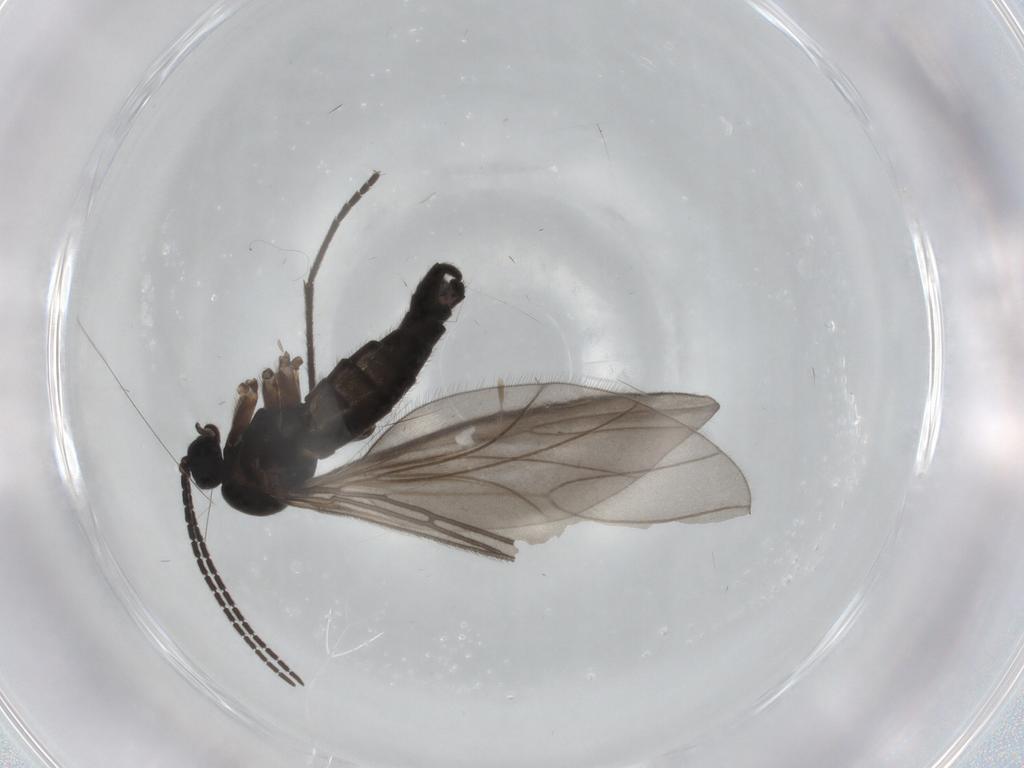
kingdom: Animalia
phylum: Arthropoda
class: Insecta
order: Diptera
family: Sciaridae
